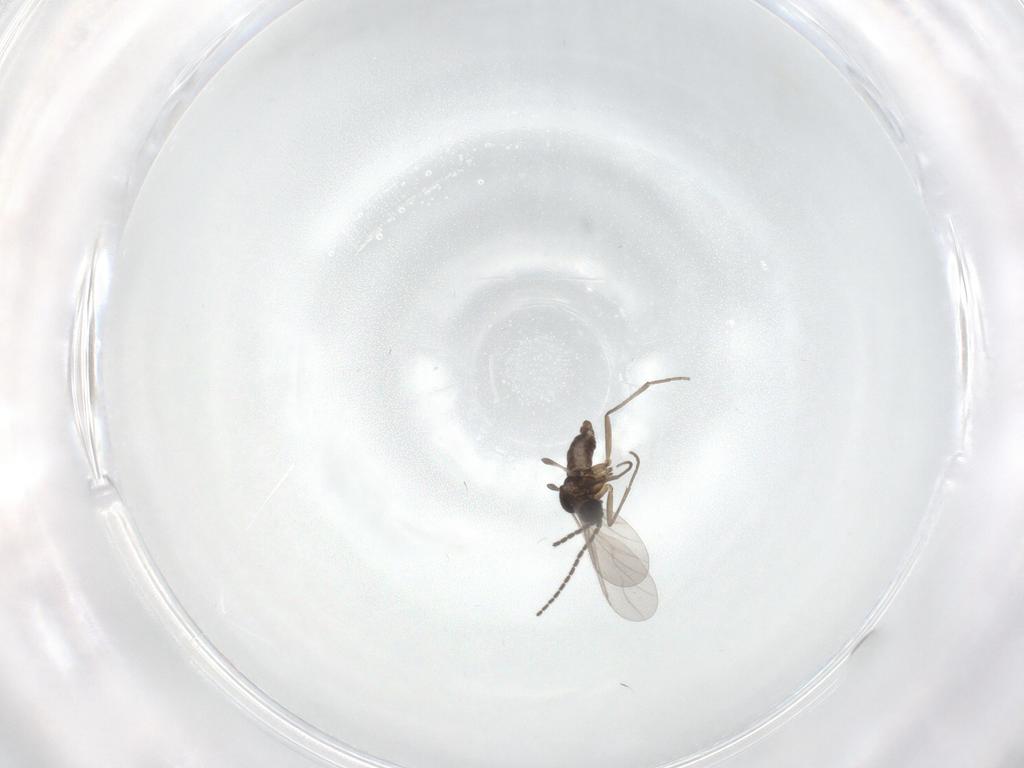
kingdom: Animalia
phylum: Arthropoda
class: Insecta
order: Diptera
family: Sciaridae
